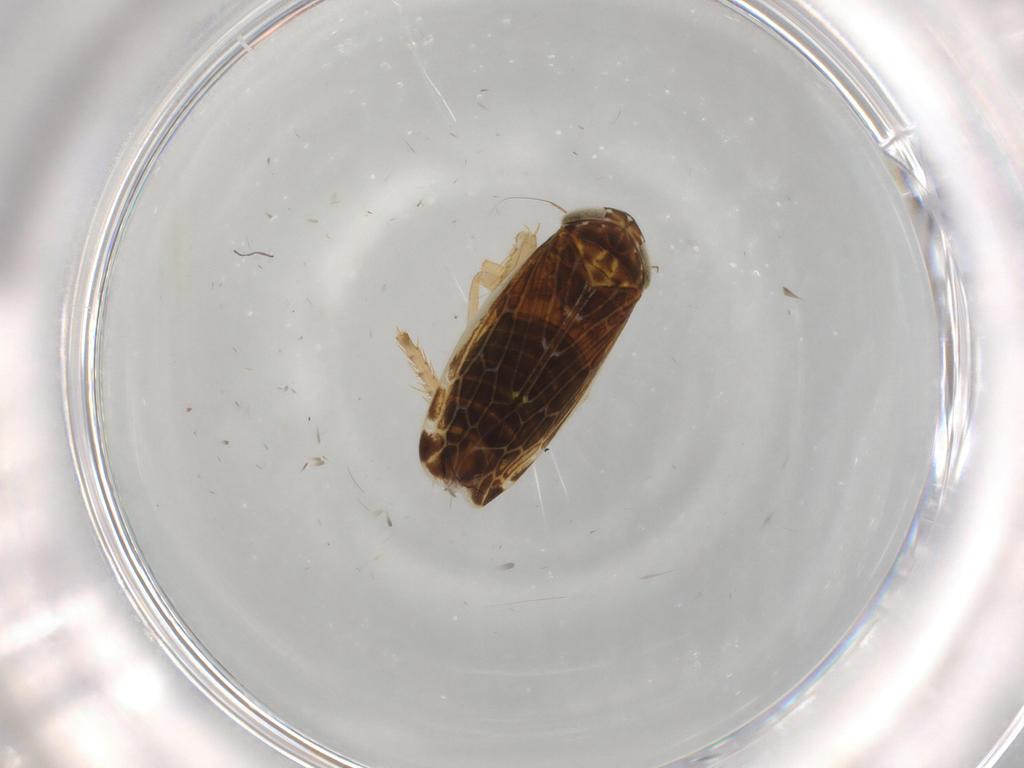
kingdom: Animalia
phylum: Arthropoda
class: Insecta
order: Hemiptera
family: Cicadellidae
